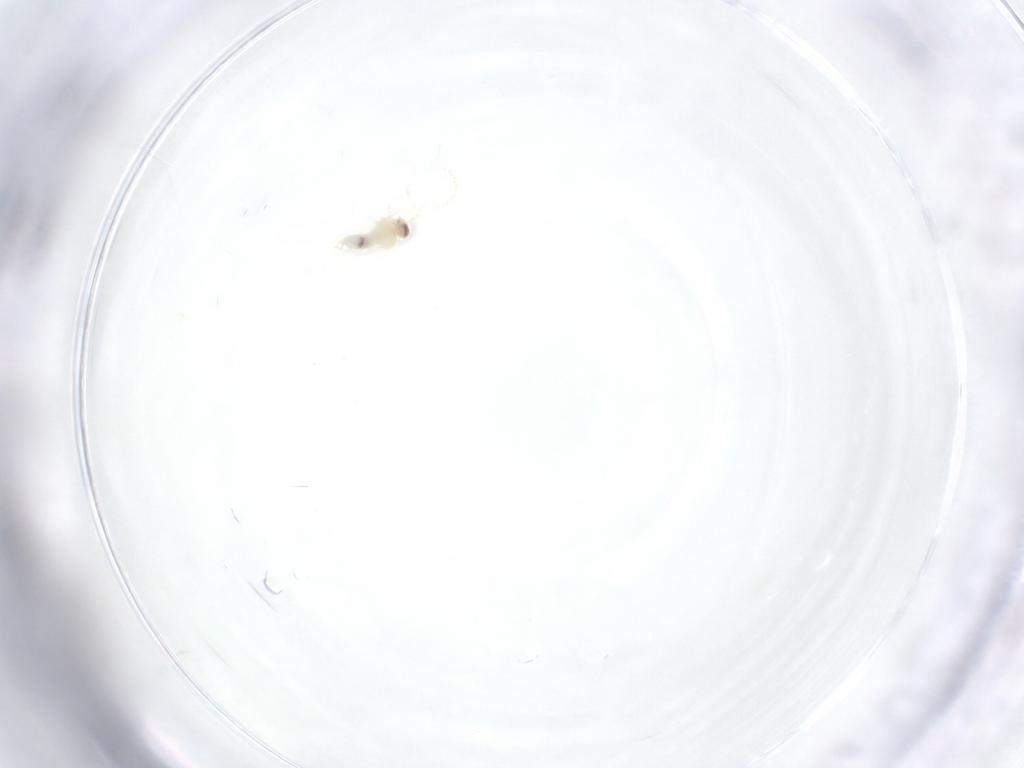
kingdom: Animalia
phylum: Arthropoda
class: Insecta
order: Diptera
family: Cecidomyiidae
